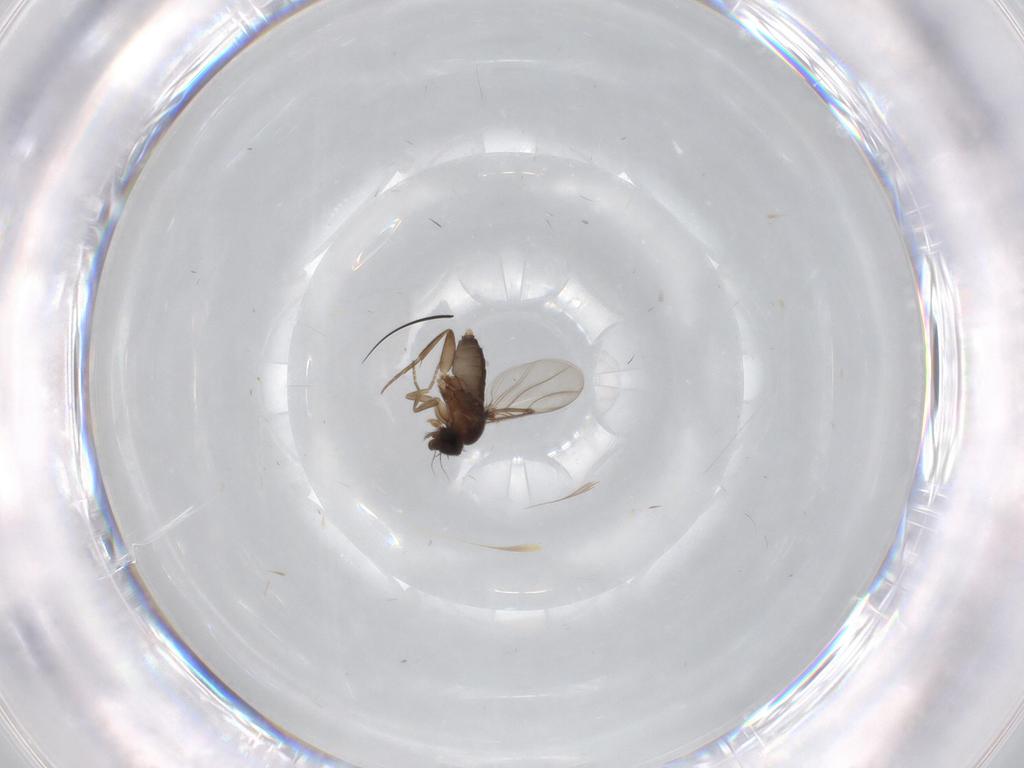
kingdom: Animalia
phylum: Arthropoda
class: Insecta
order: Diptera
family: Phoridae
